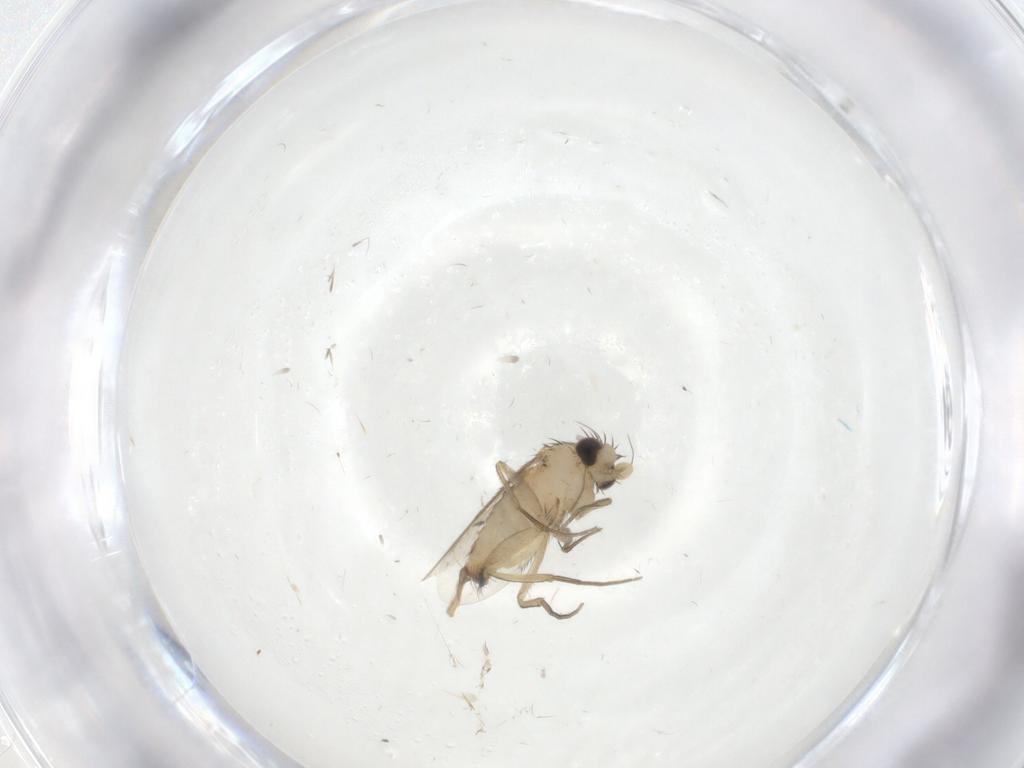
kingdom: Animalia
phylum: Arthropoda
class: Insecta
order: Diptera
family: Phoridae
